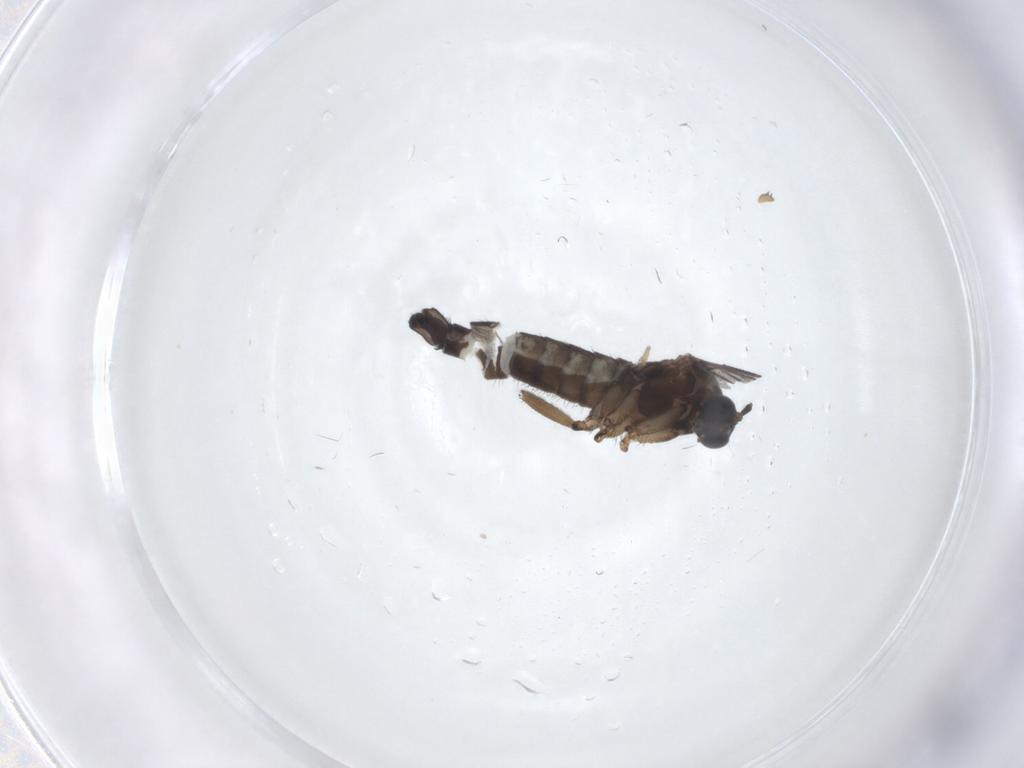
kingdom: Animalia
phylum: Arthropoda
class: Insecta
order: Diptera
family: Sciaridae
